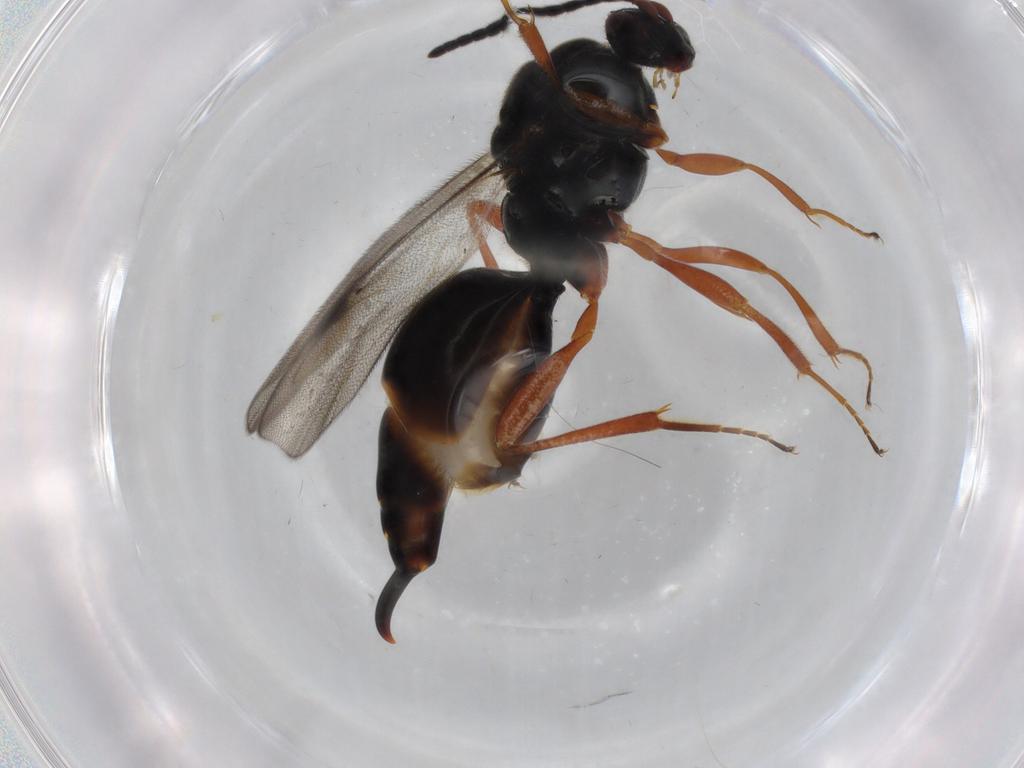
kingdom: Animalia
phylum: Arthropoda
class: Insecta
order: Hymenoptera
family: Proctotrupidae
